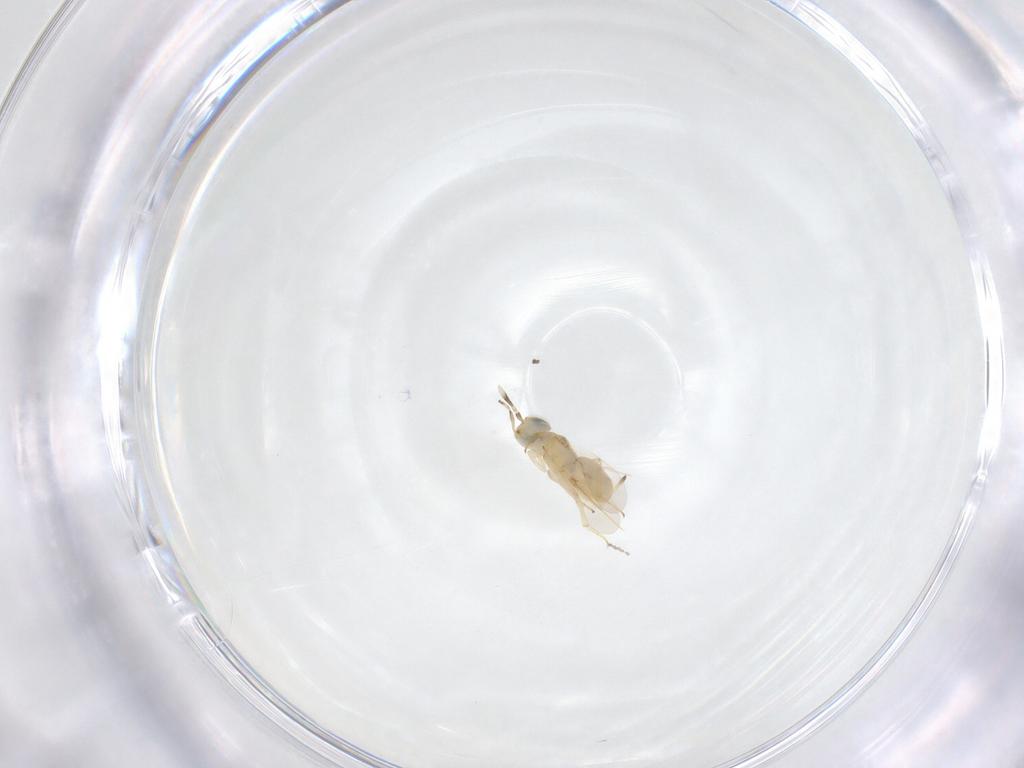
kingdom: Animalia
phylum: Arthropoda
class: Insecta
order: Hymenoptera
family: Encyrtidae
